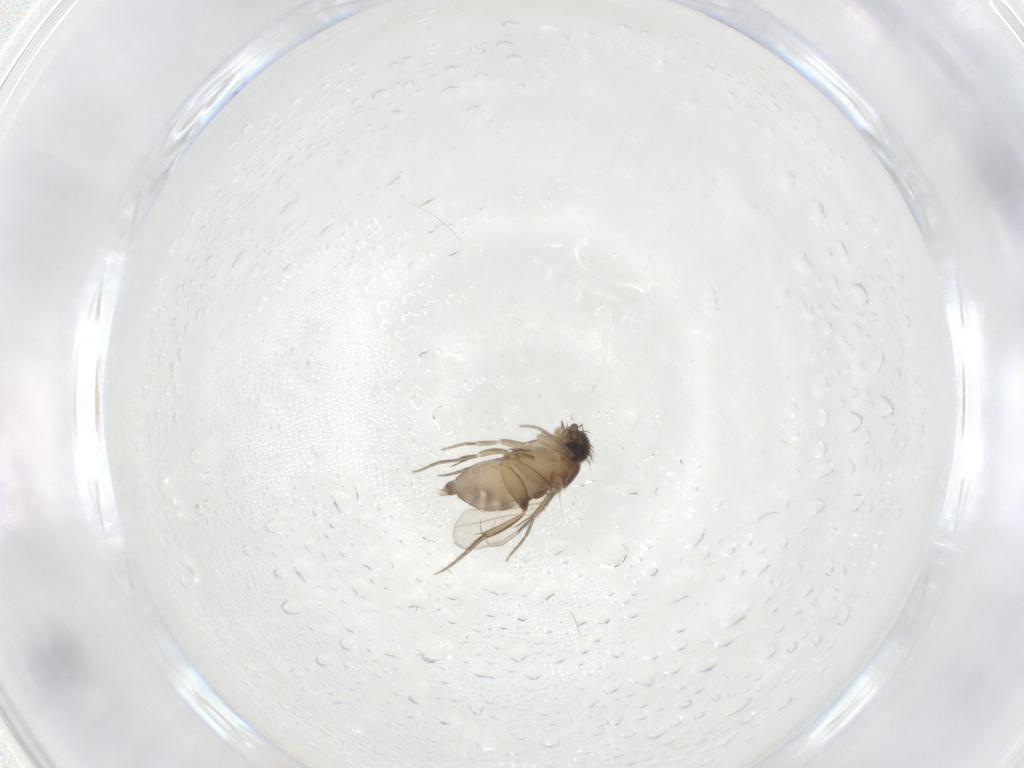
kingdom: Animalia
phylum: Arthropoda
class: Insecta
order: Diptera
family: Phoridae
